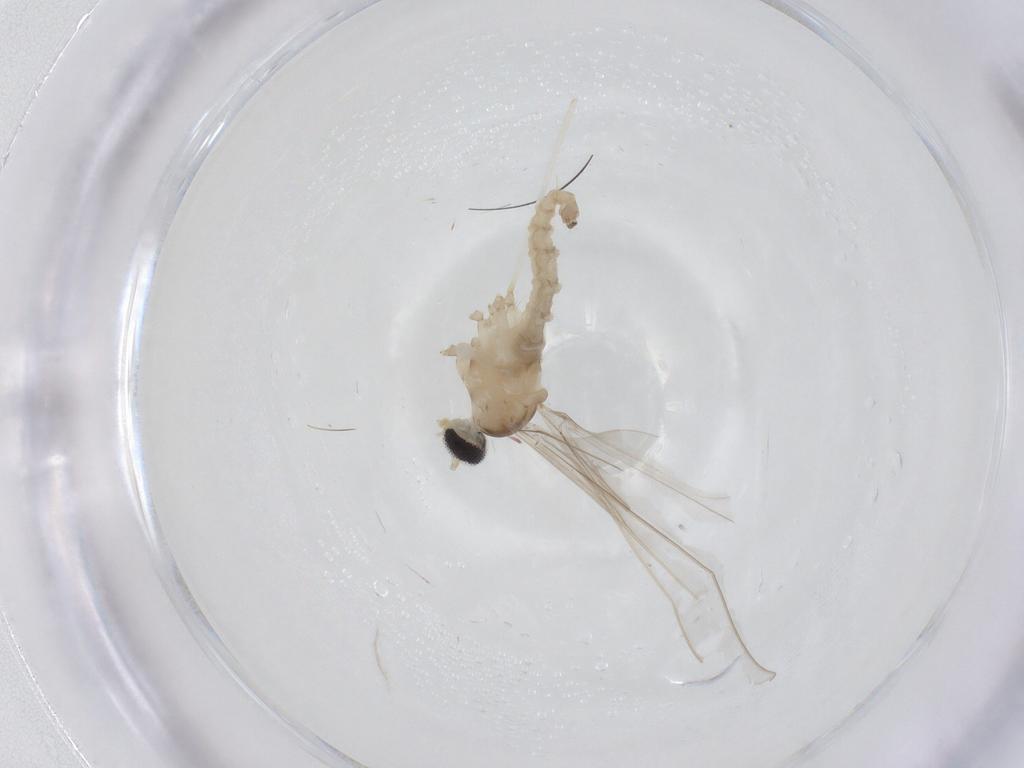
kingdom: Animalia
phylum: Arthropoda
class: Insecta
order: Diptera
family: Cecidomyiidae
